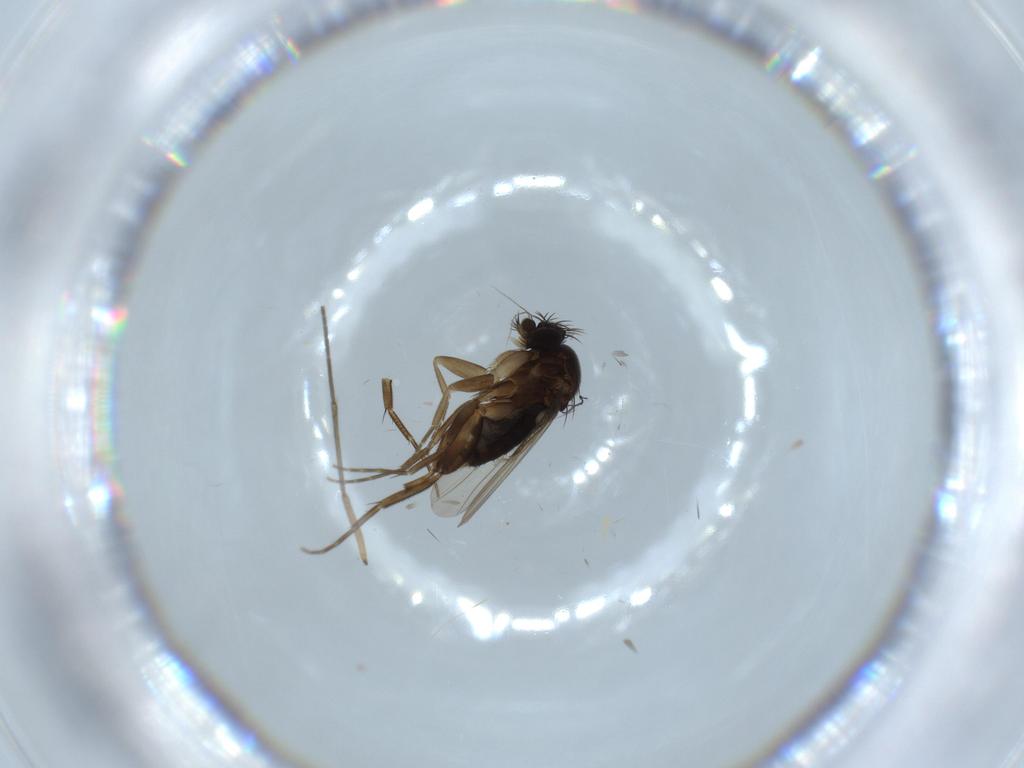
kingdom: Animalia
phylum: Arthropoda
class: Insecta
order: Diptera
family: Phoridae
